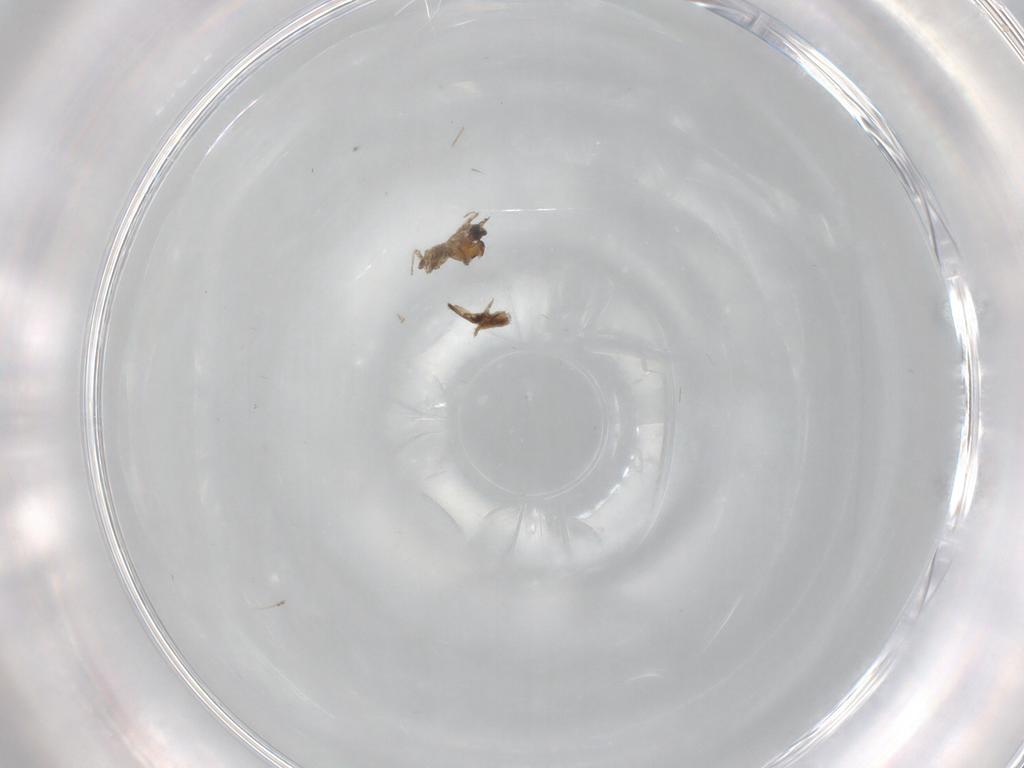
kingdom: Animalia
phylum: Arthropoda
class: Insecta
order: Diptera
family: Cecidomyiidae
